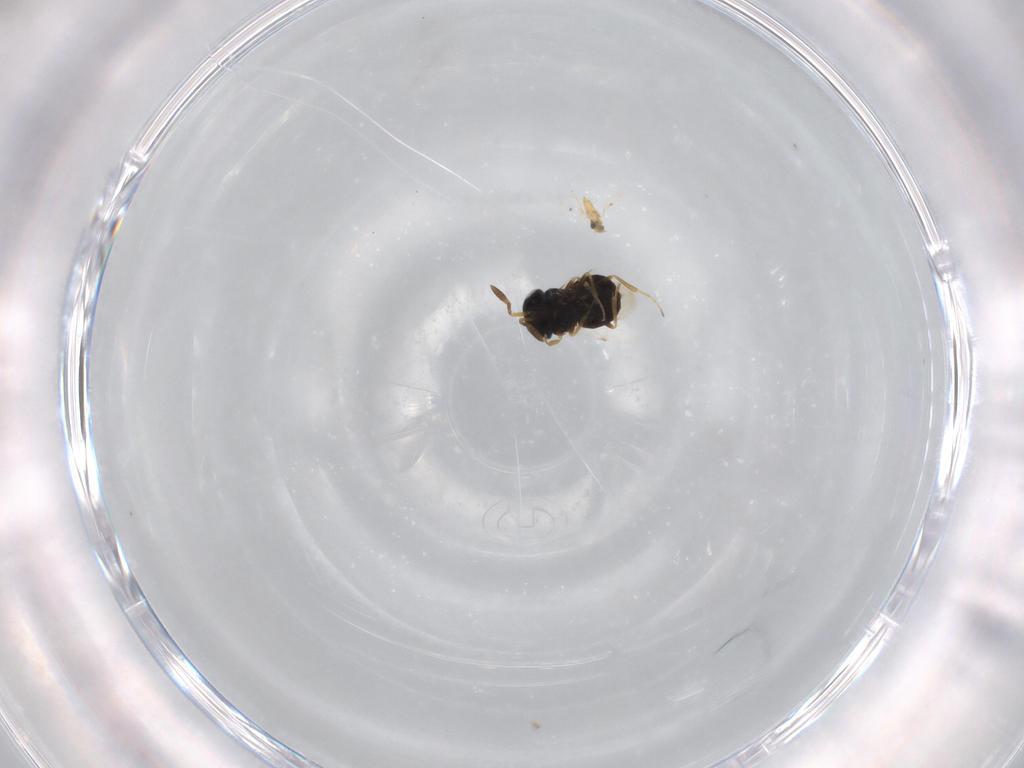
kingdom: Animalia
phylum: Arthropoda
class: Insecta
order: Hymenoptera
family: Scelionidae
